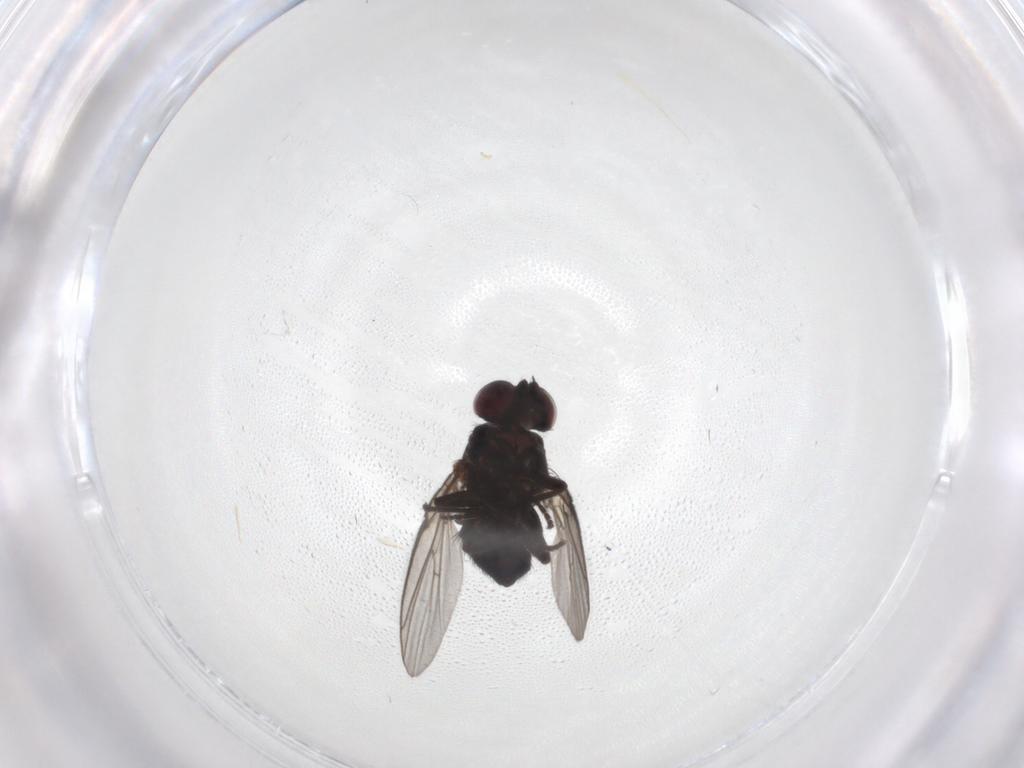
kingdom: Animalia
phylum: Arthropoda
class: Insecta
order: Diptera
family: Agromyzidae
